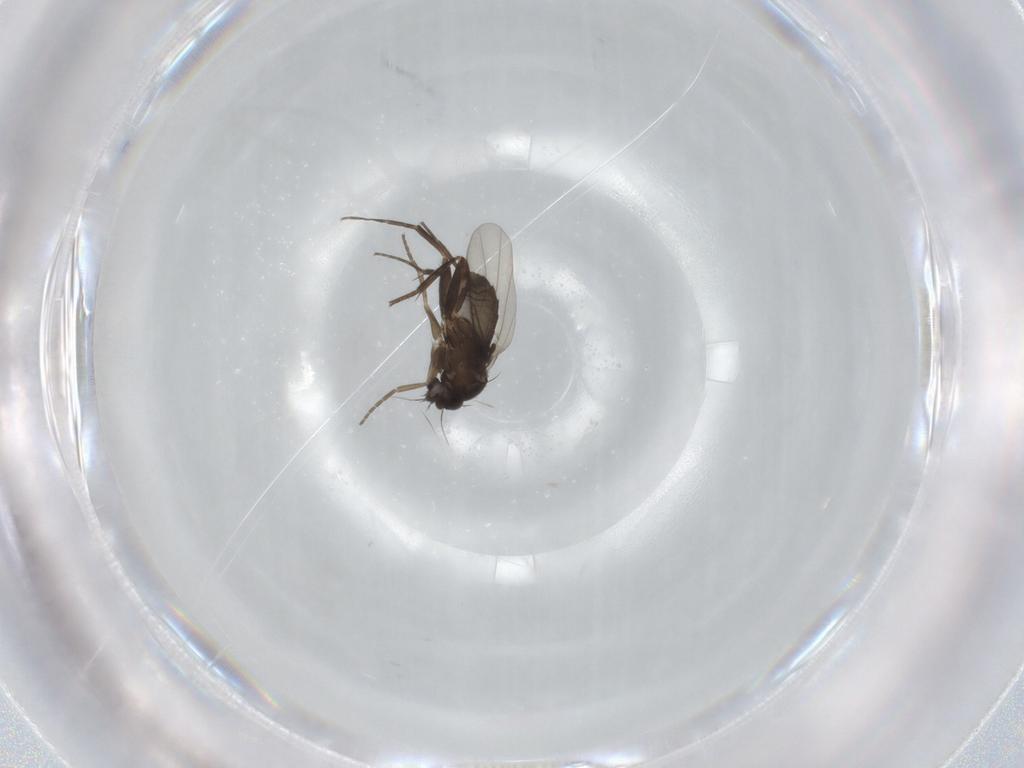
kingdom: Animalia
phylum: Arthropoda
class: Insecta
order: Diptera
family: Phoridae
